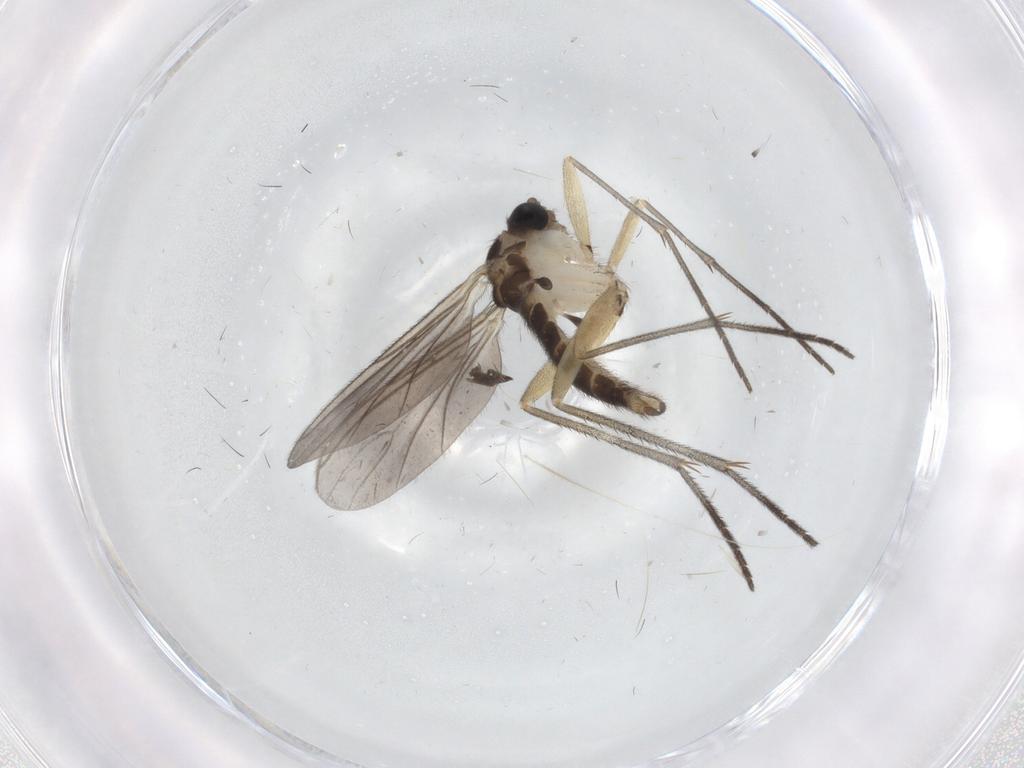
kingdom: Animalia
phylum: Arthropoda
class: Insecta
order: Diptera
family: Sciaridae
